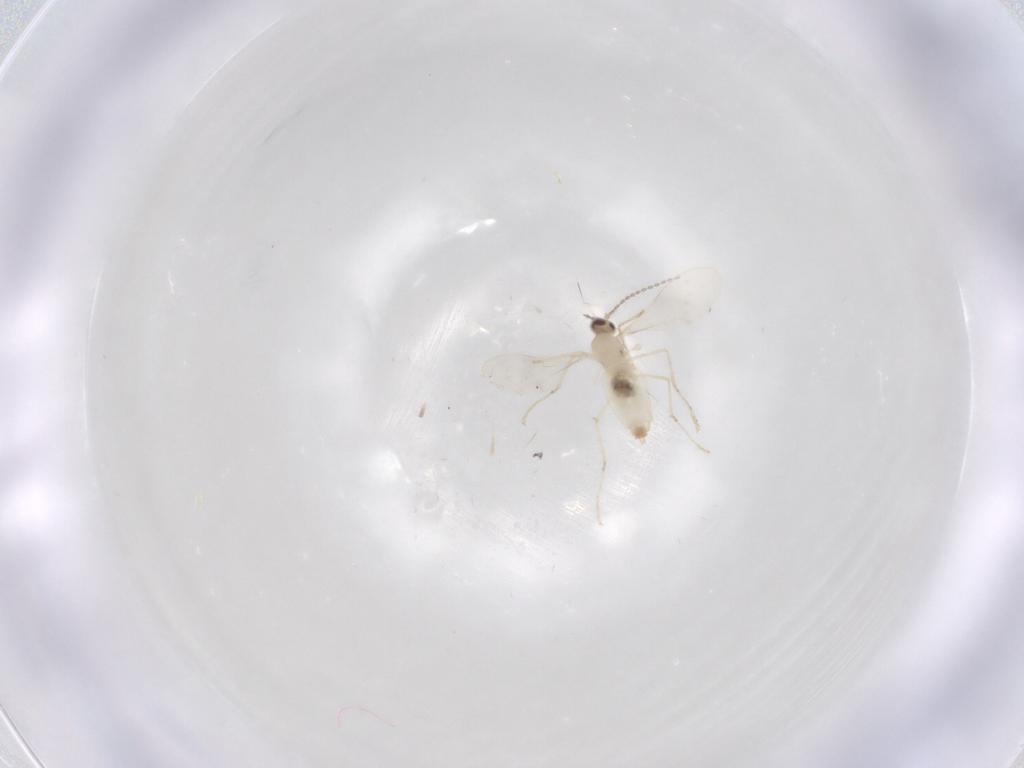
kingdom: Animalia
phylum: Arthropoda
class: Insecta
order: Diptera
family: Cecidomyiidae
